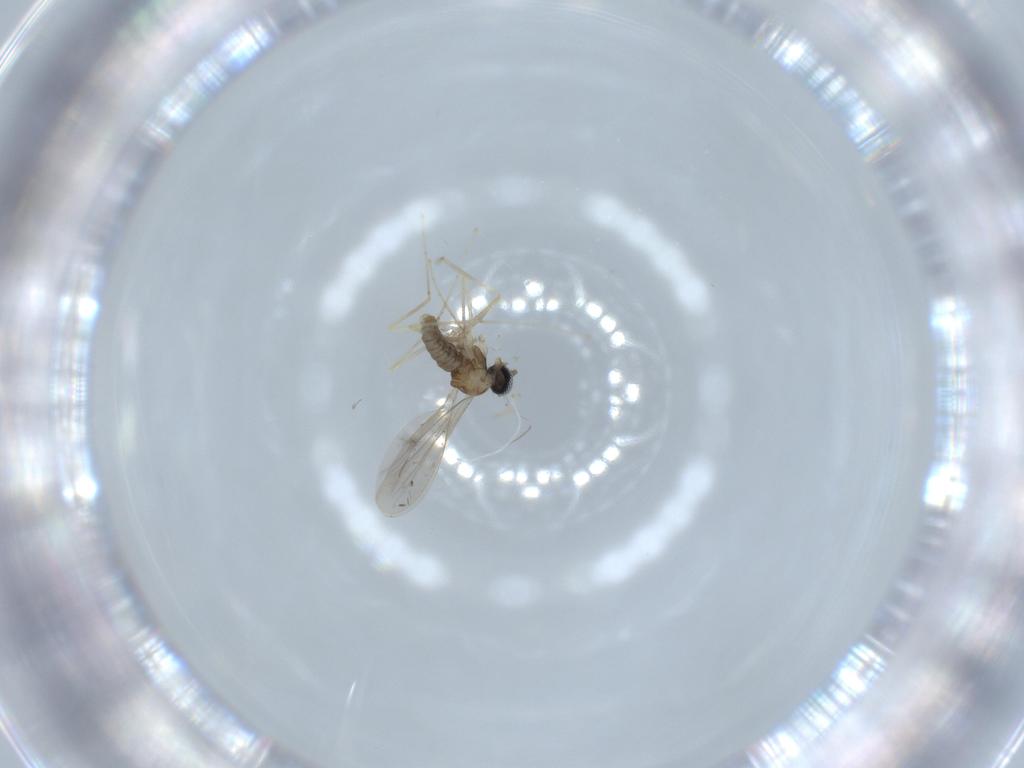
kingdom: Animalia
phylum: Arthropoda
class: Insecta
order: Diptera
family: Cecidomyiidae
